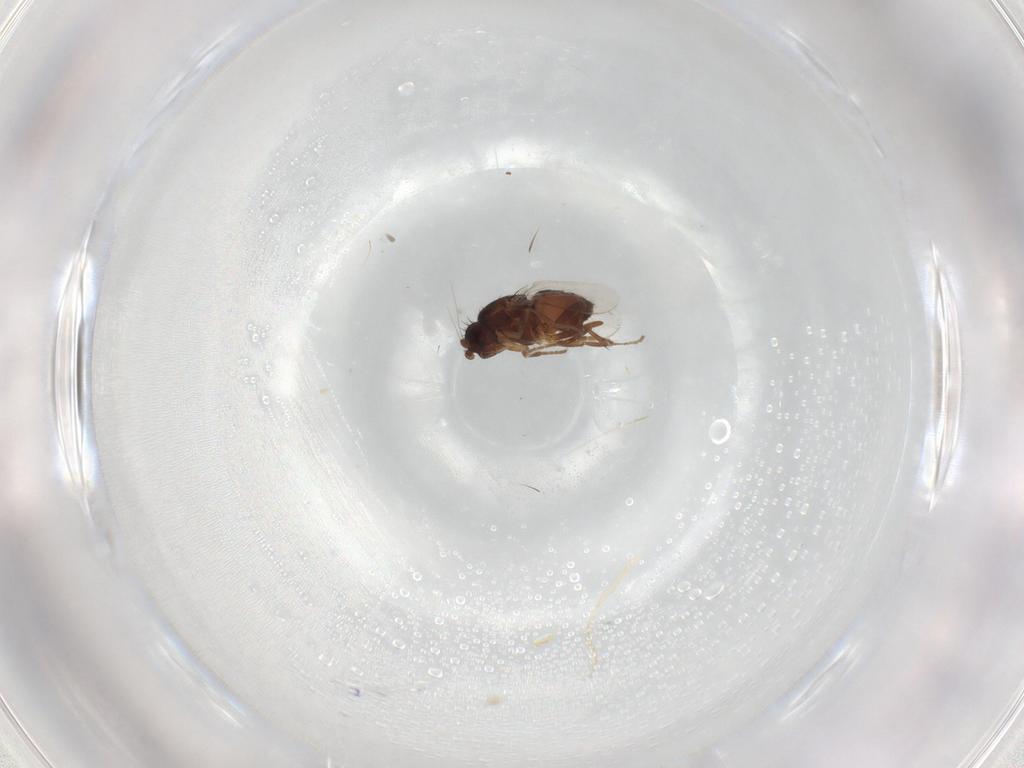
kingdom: Animalia
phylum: Arthropoda
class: Insecta
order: Diptera
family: Sphaeroceridae
